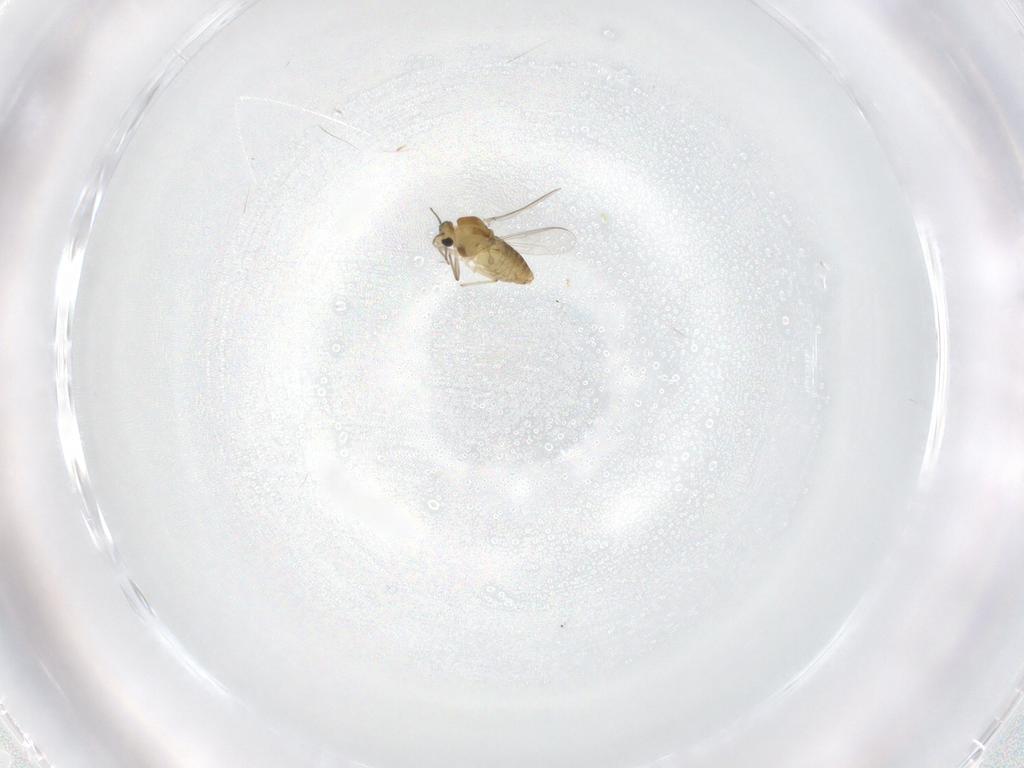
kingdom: Animalia
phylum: Arthropoda
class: Insecta
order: Diptera
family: Chironomidae
